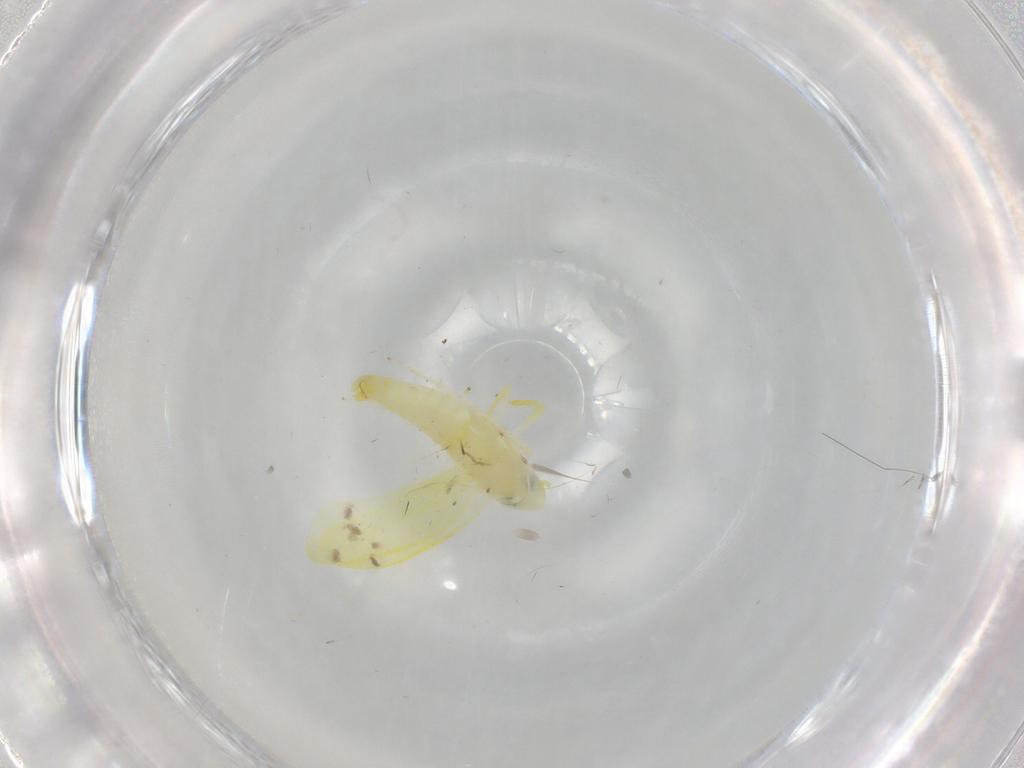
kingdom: Animalia
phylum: Arthropoda
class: Insecta
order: Hemiptera
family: Cicadellidae
